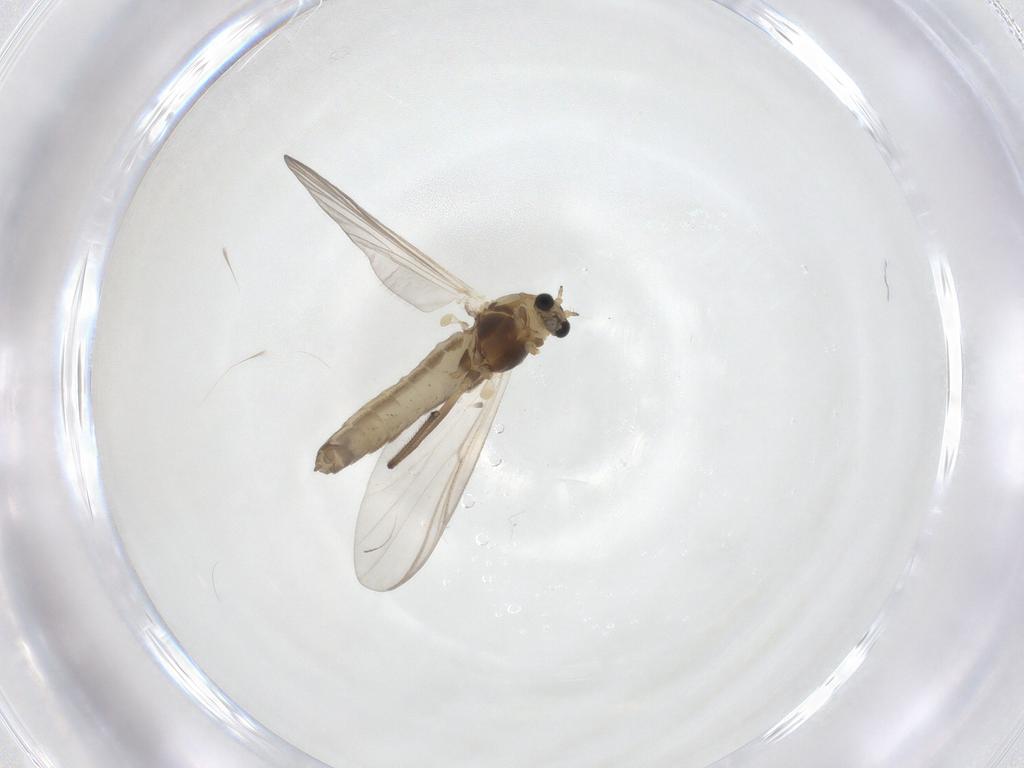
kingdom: Animalia
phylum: Arthropoda
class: Insecta
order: Diptera
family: Chironomidae
